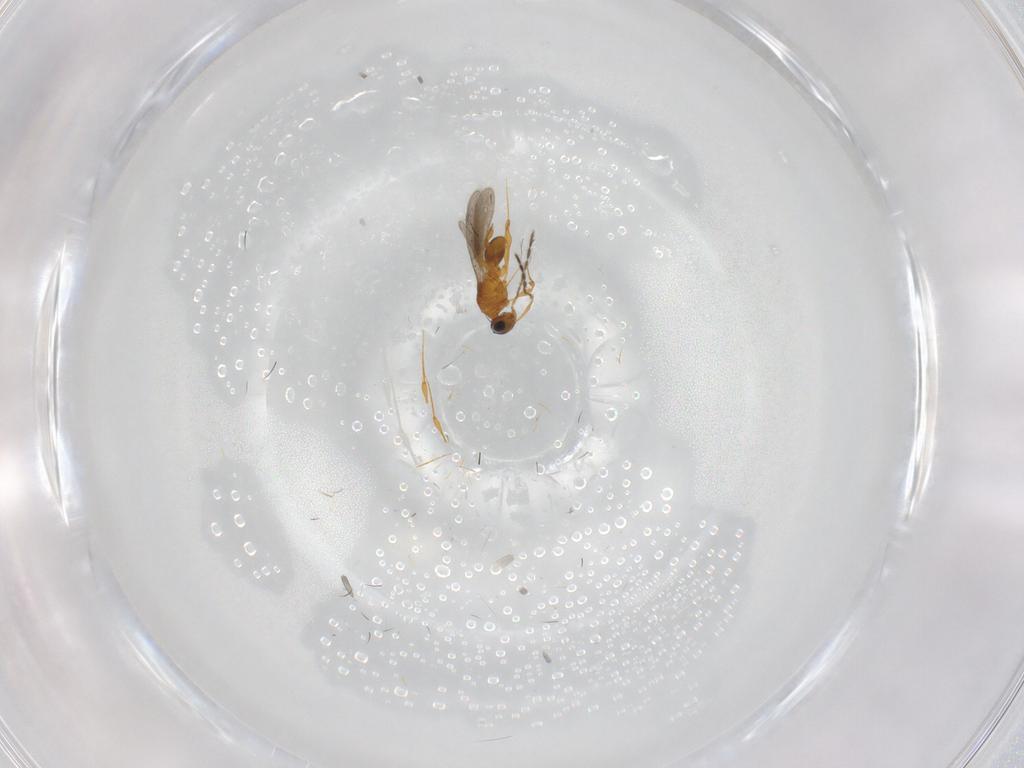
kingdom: Animalia
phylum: Arthropoda
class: Insecta
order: Hymenoptera
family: Platygastridae
